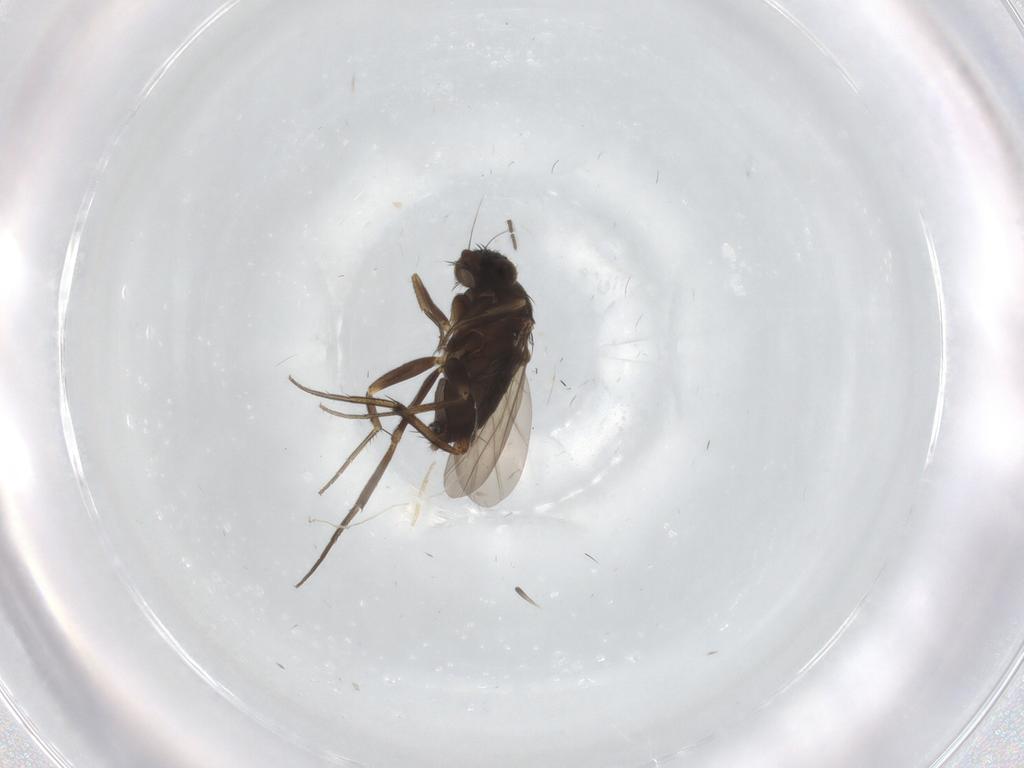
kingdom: Animalia
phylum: Arthropoda
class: Insecta
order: Diptera
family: Phoridae
